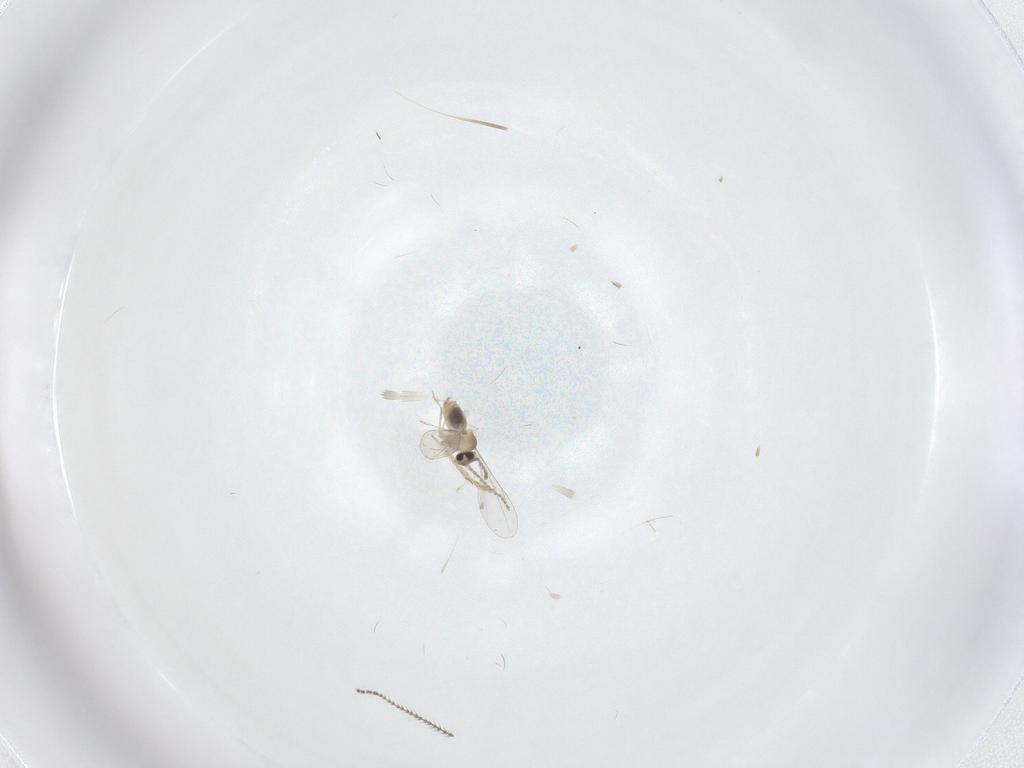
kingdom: Animalia
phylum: Arthropoda
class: Insecta
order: Diptera
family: Chironomidae
